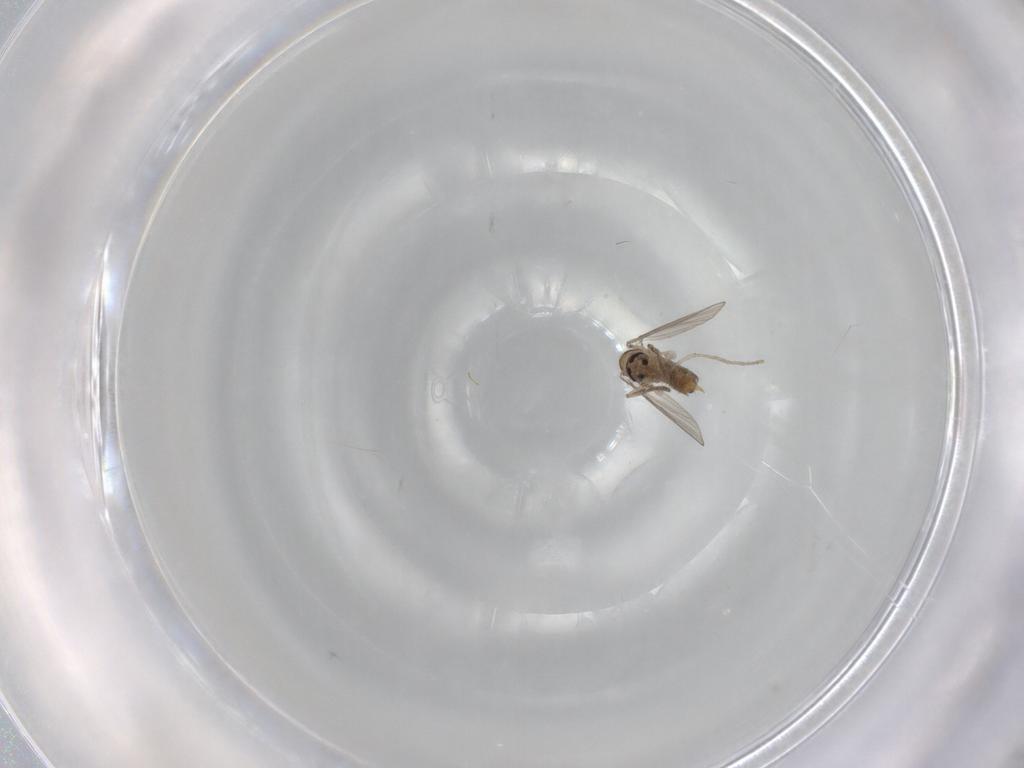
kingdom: Animalia
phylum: Arthropoda
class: Insecta
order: Diptera
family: Psychodidae
